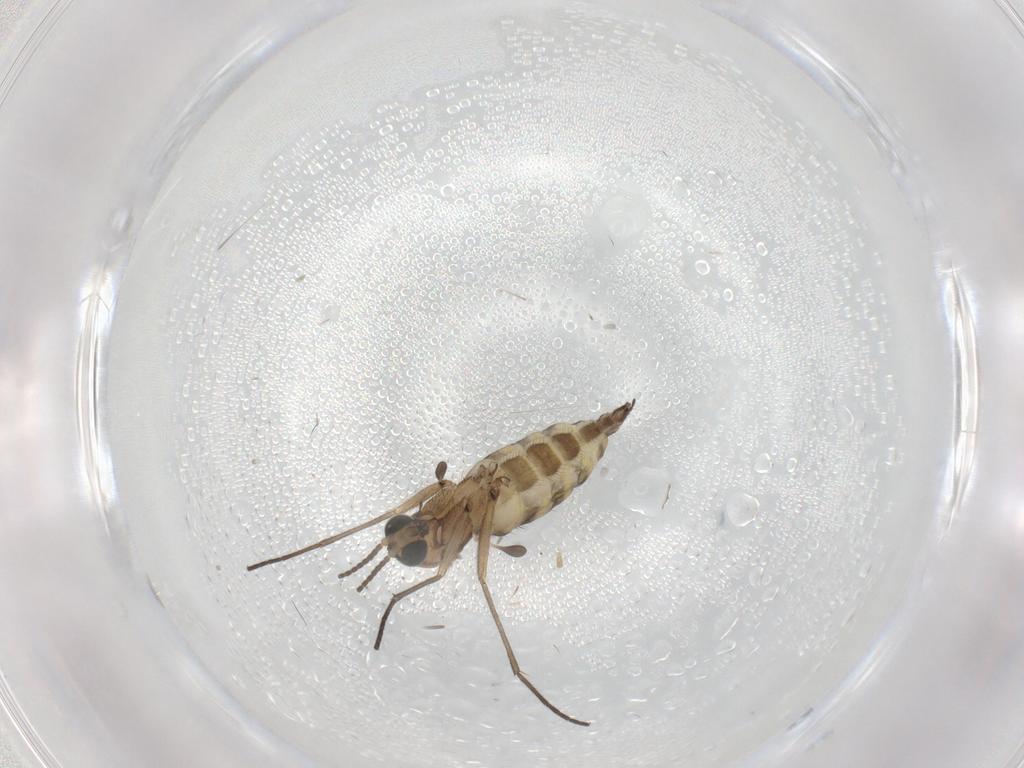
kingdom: Animalia
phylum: Arthropoda
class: Insecta
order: Diptera
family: Sciaridae
